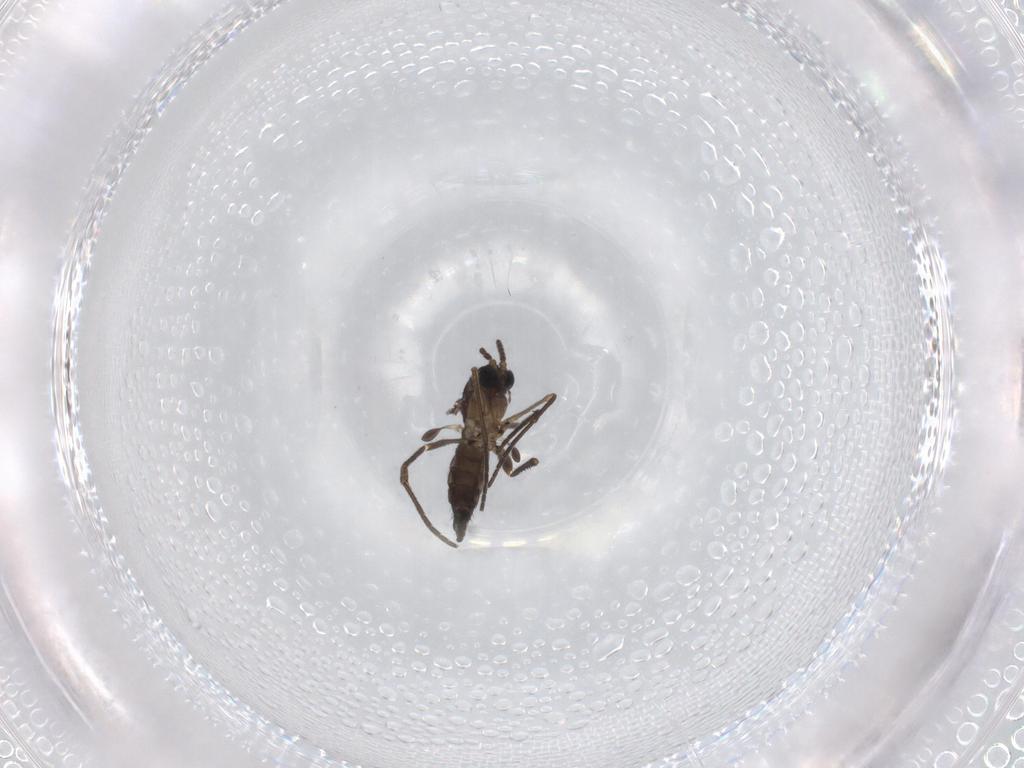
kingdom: Animalia
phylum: Arthropoda
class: Insecta
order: Diptera
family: Sciaridae
